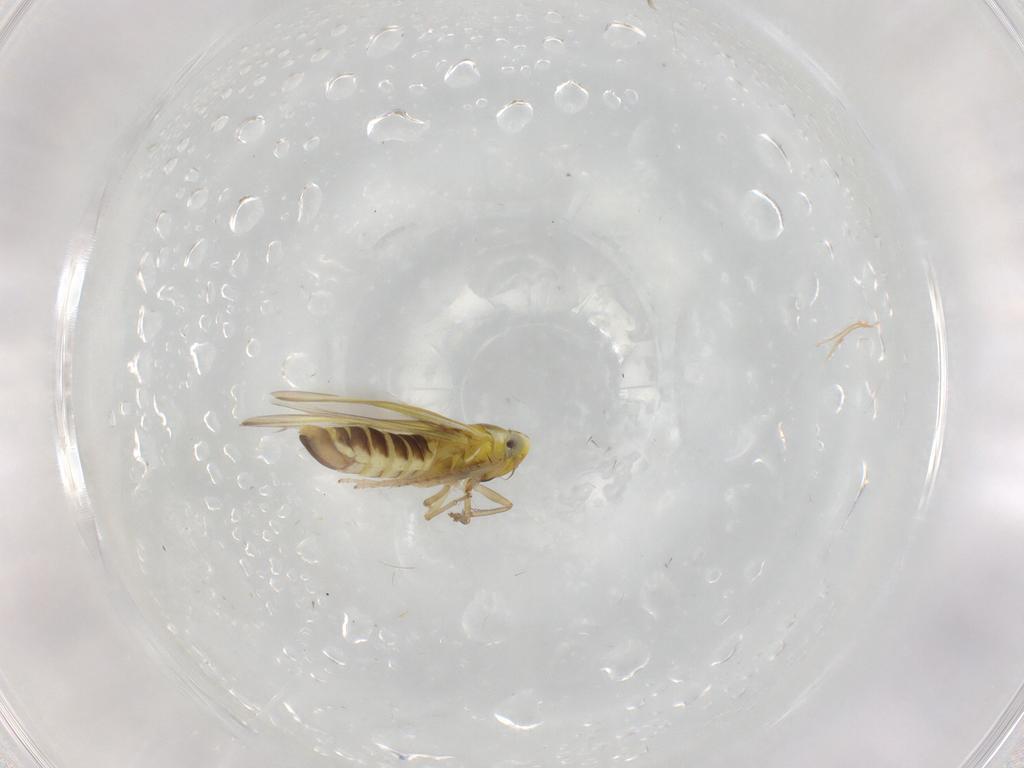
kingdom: Animalia
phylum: Arthropoda
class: Insecta
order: Hemiptera
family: Cicadellidae
